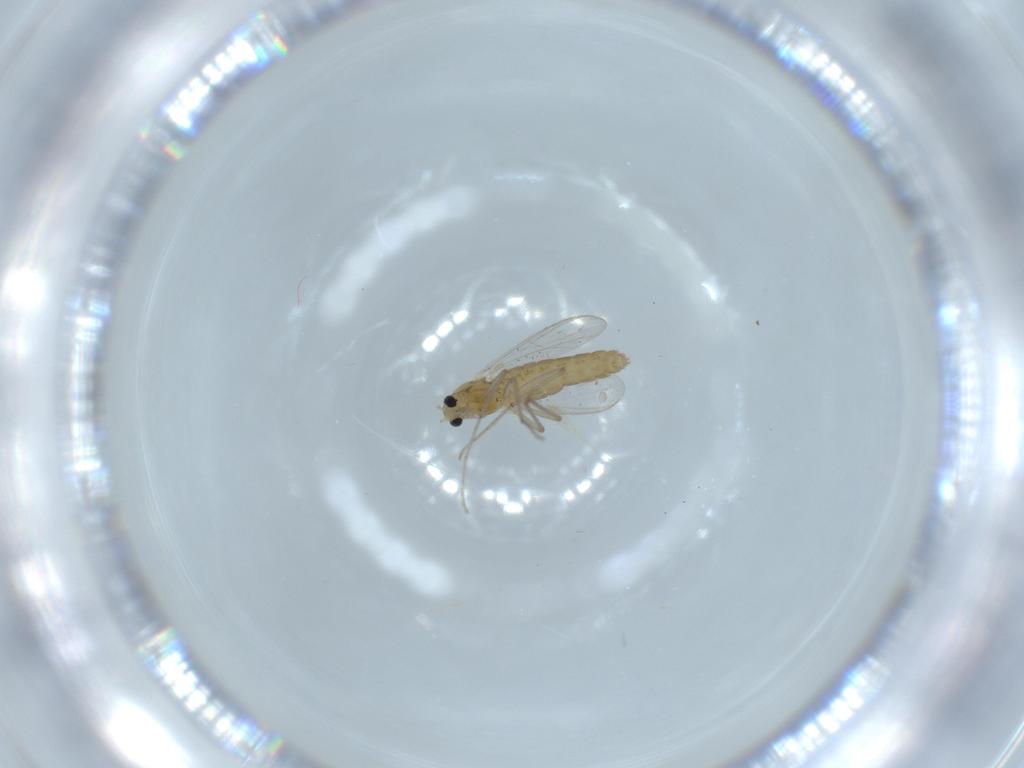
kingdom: Animalia
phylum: Arthropoda
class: Insecta
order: Diptera
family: Chironomidae
